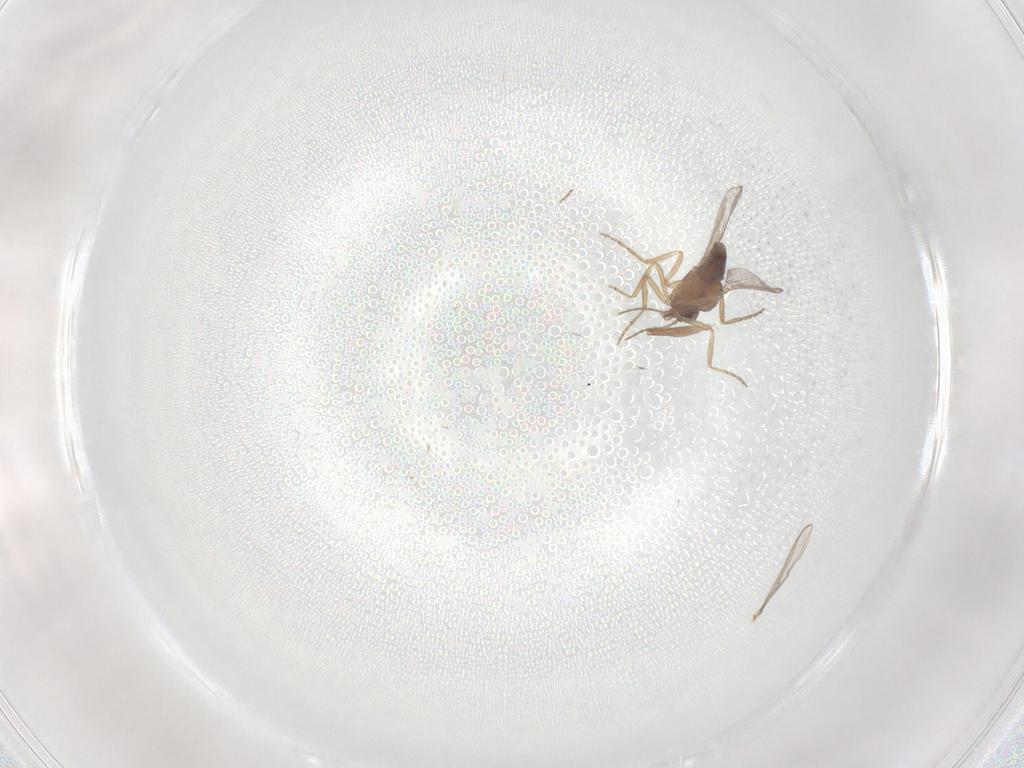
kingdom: Animalia
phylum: Arthropoda
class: Insecta
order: Diptera
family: Ceratopogonidae
